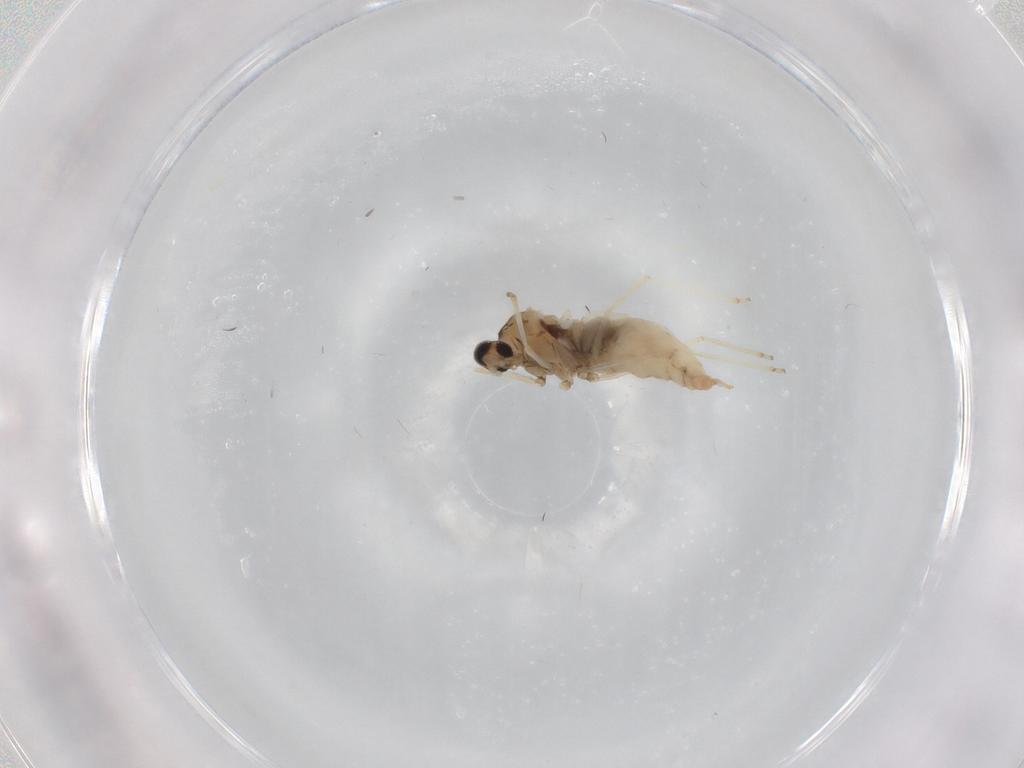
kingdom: Animalia
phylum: Arthropoda
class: Insecta
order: Diptera
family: Cecidomyiidae
